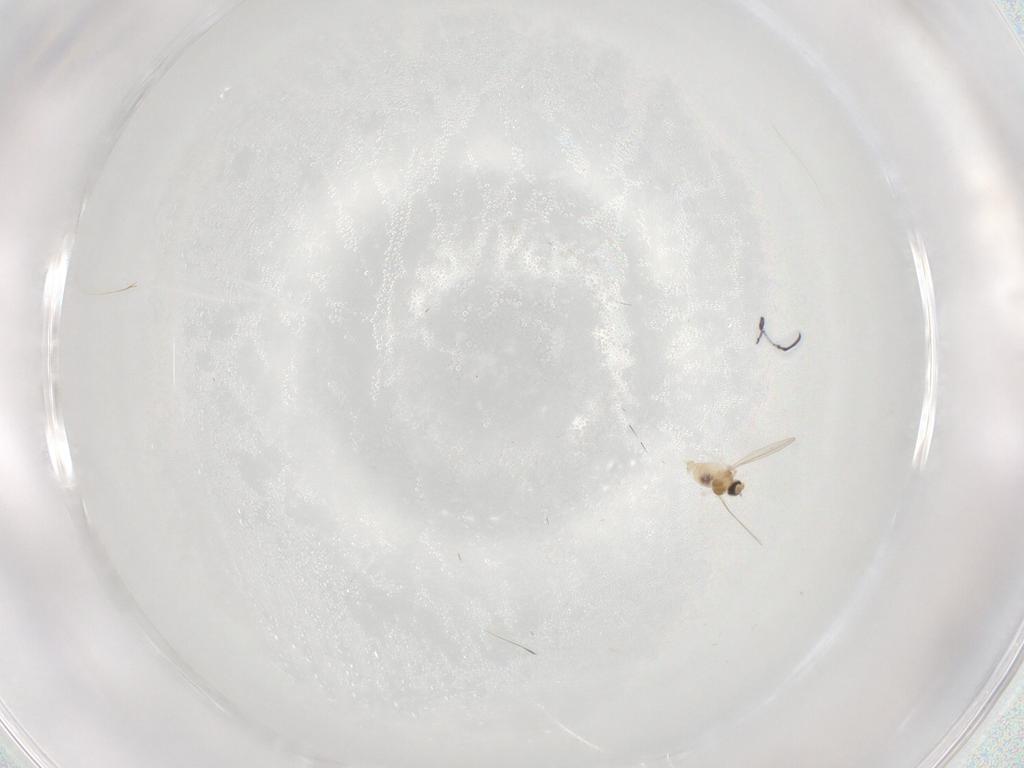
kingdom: Animalia
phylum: Arthropoda
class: Insecta
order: Diptera
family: Cecidomyiidae
